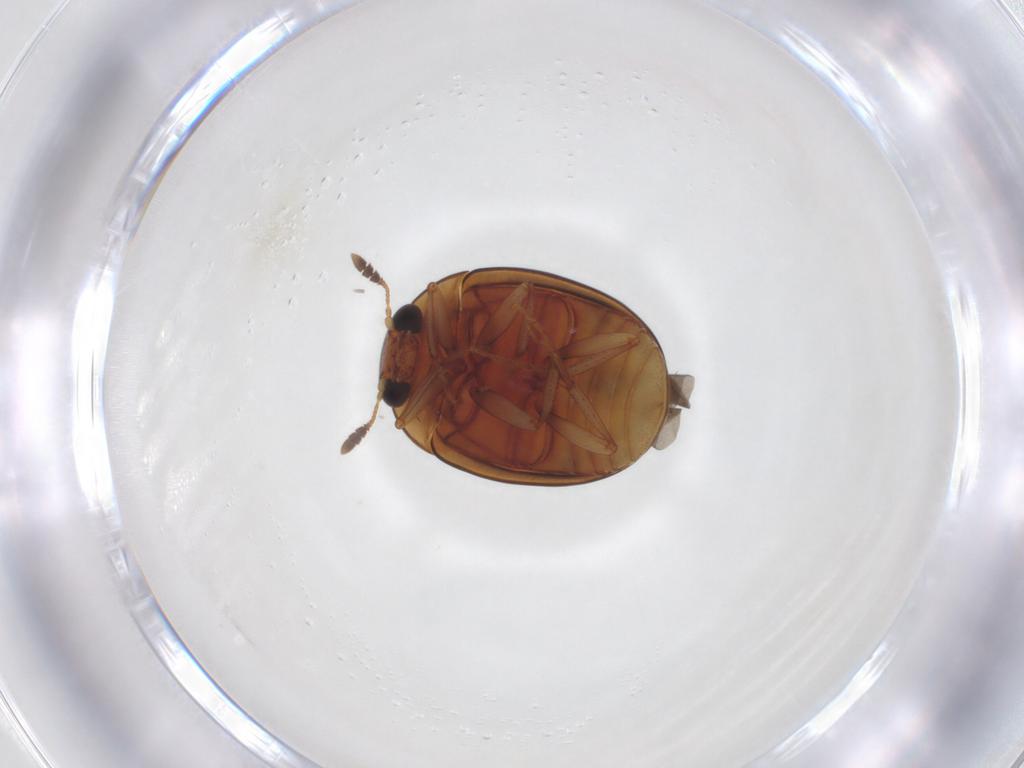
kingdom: Animalia
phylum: Arthropoda
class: Insecta
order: Coleoptera
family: Nitidulidae
